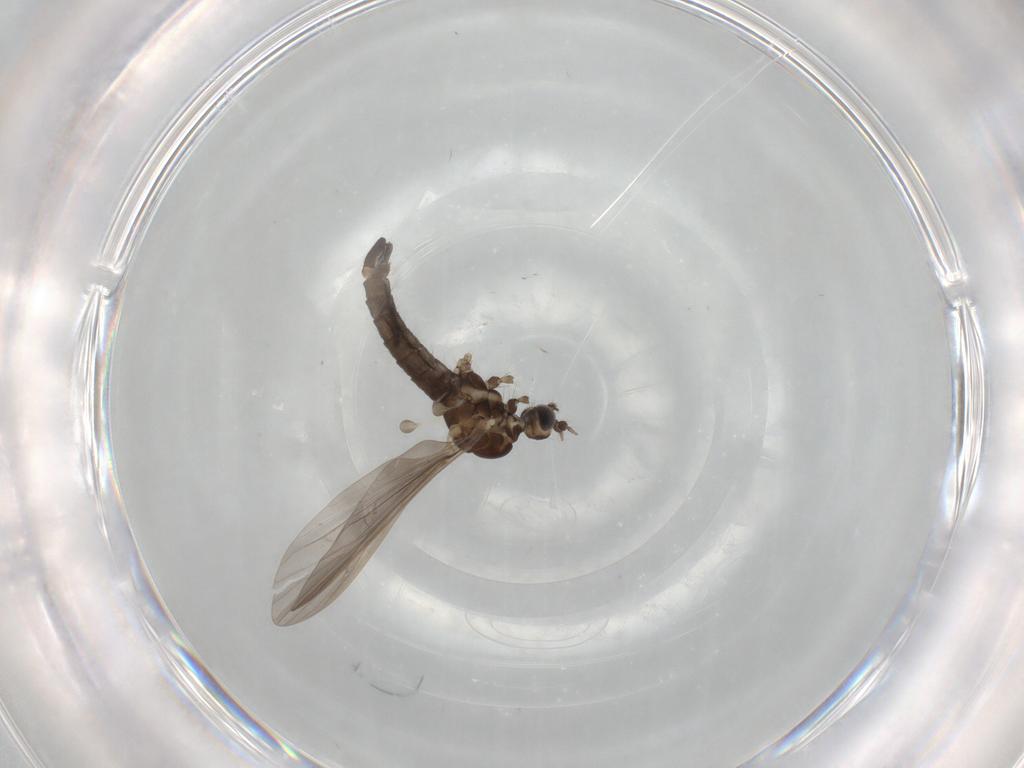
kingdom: Animalia
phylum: Arthropoda
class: Insecta
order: Diptera
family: Limoniidae
